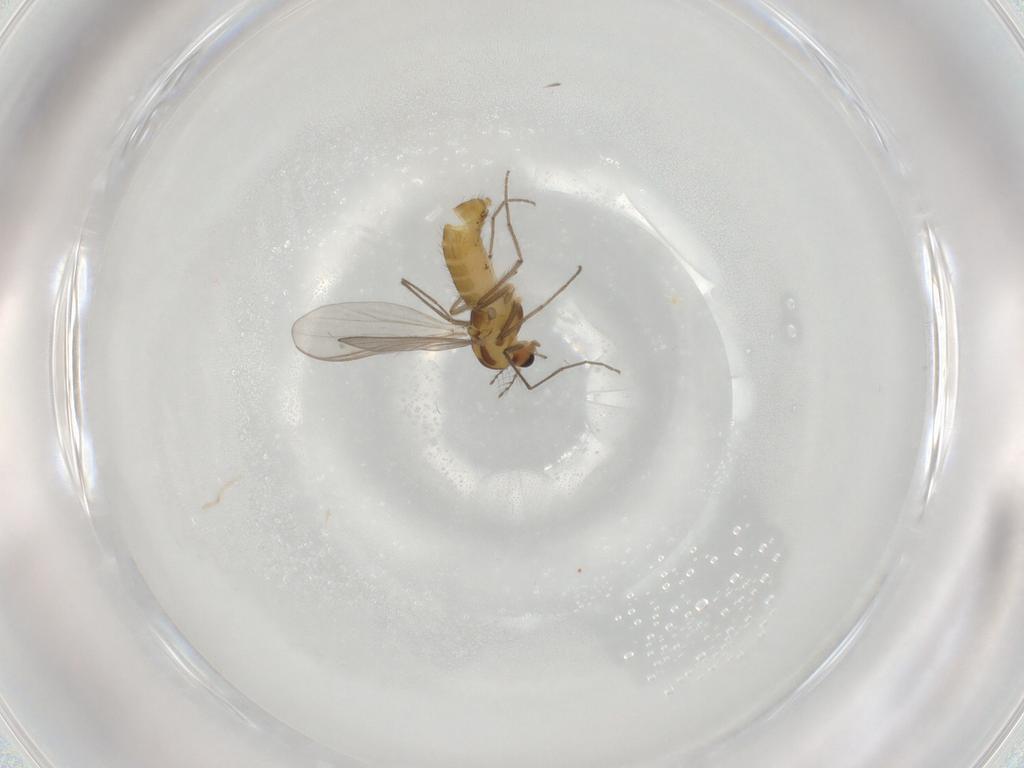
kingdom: Animalia
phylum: Arthropoda
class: Insecta
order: Diptera
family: Chironomidae
